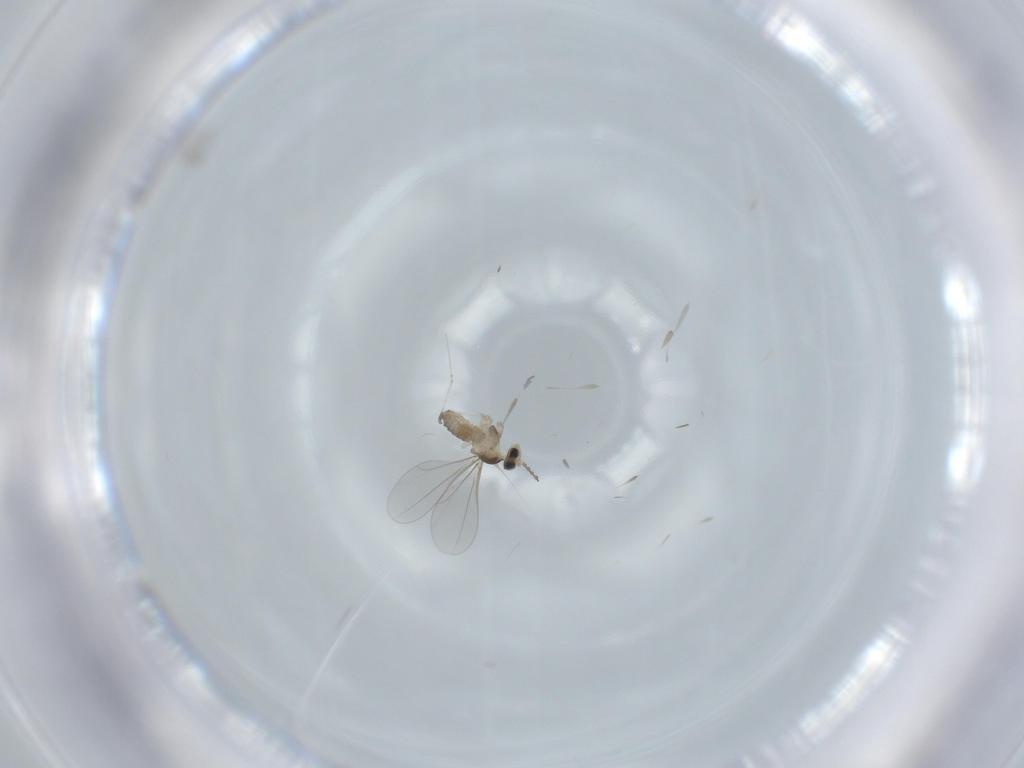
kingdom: Animalia
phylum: Arthropoda
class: Insecta
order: Diptera
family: Cecidomyiidae
